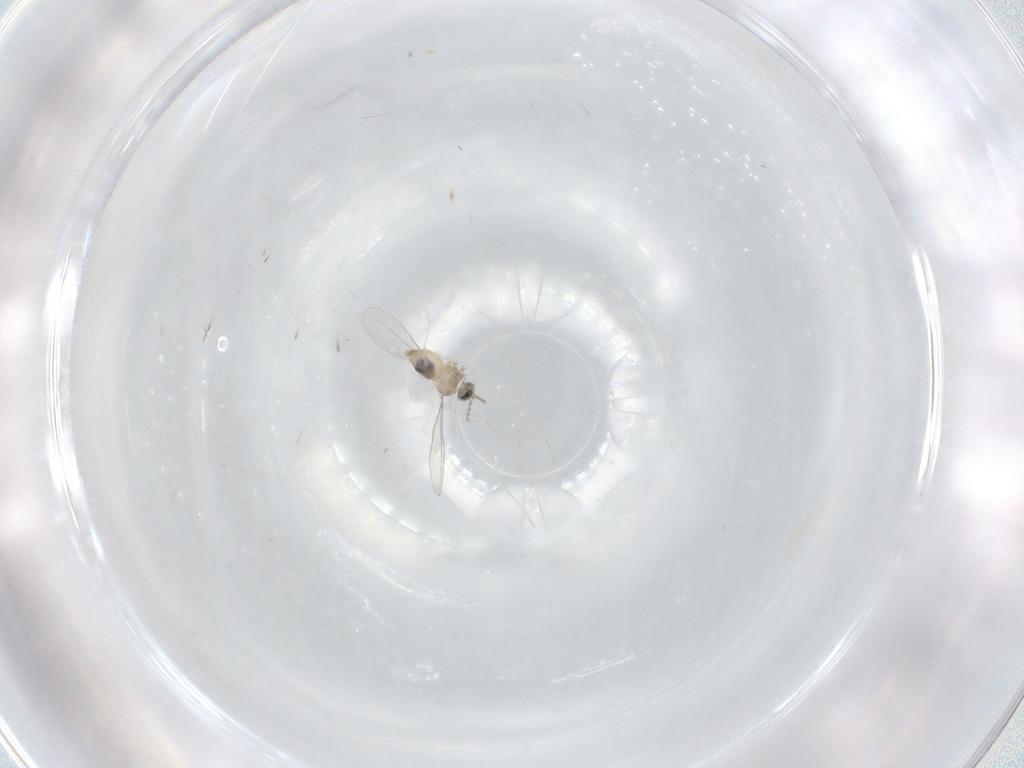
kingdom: Animalia
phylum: Arthropoda
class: Insecta
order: Diptera
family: Cecidomyiidae
